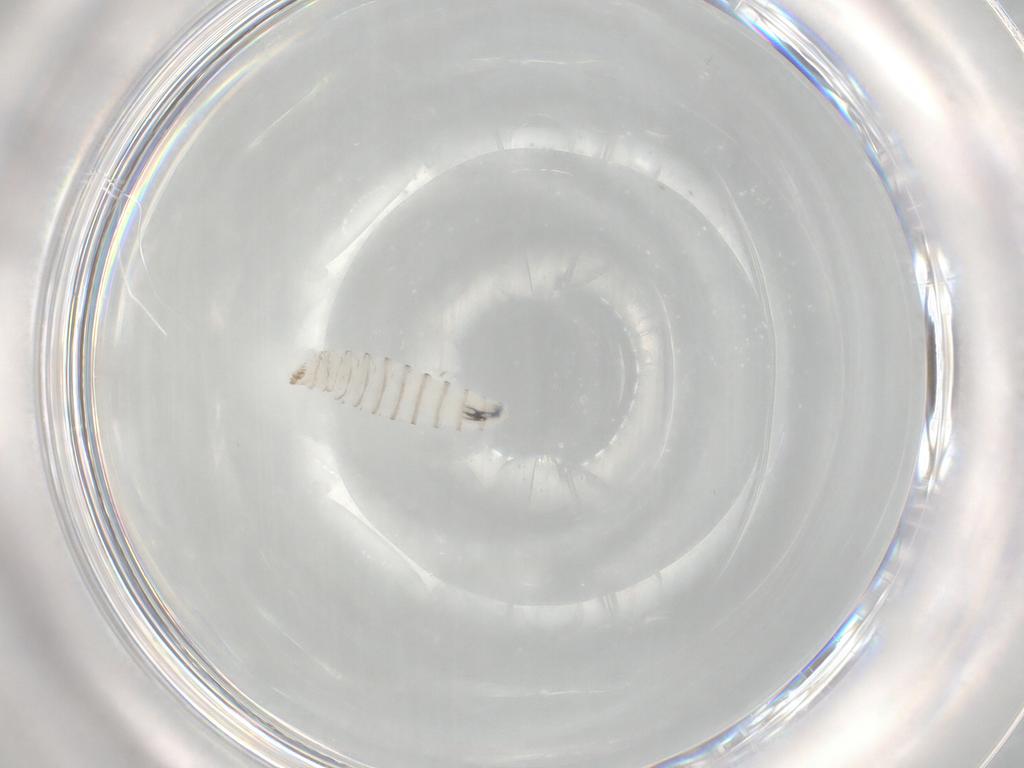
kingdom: Animalia
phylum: Arthropoda
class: Insecta
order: Diptera
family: Sarcophagidae
